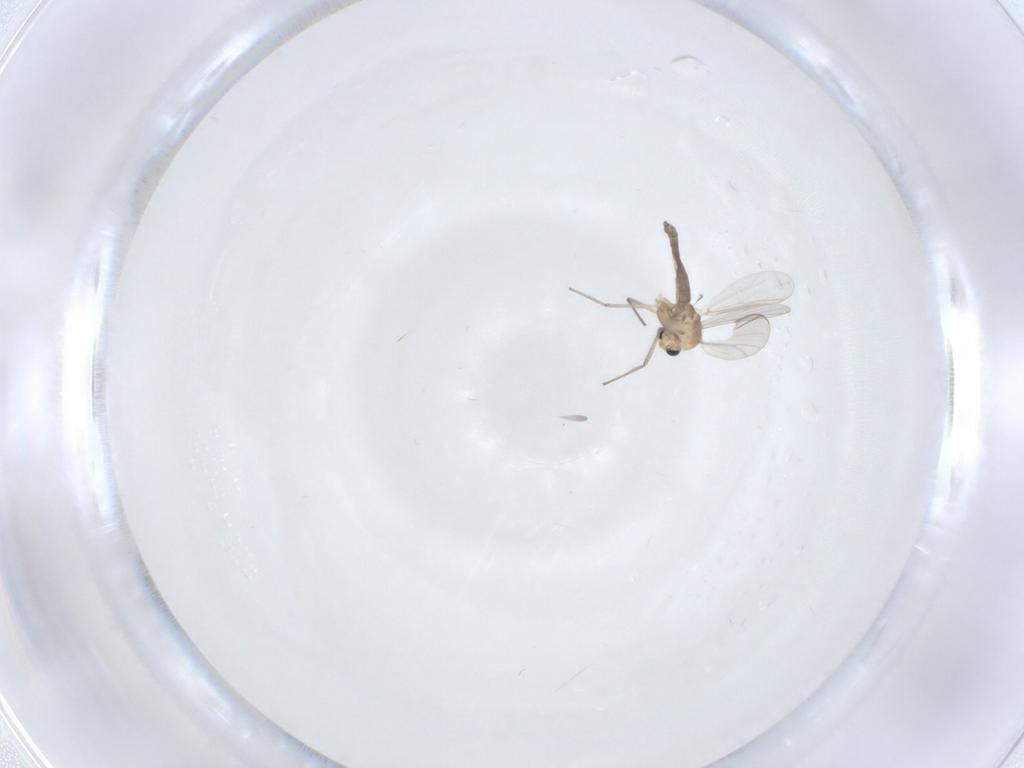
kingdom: Animalia
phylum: Arthropoda
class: Insecta
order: Diptera
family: Chironomidae
